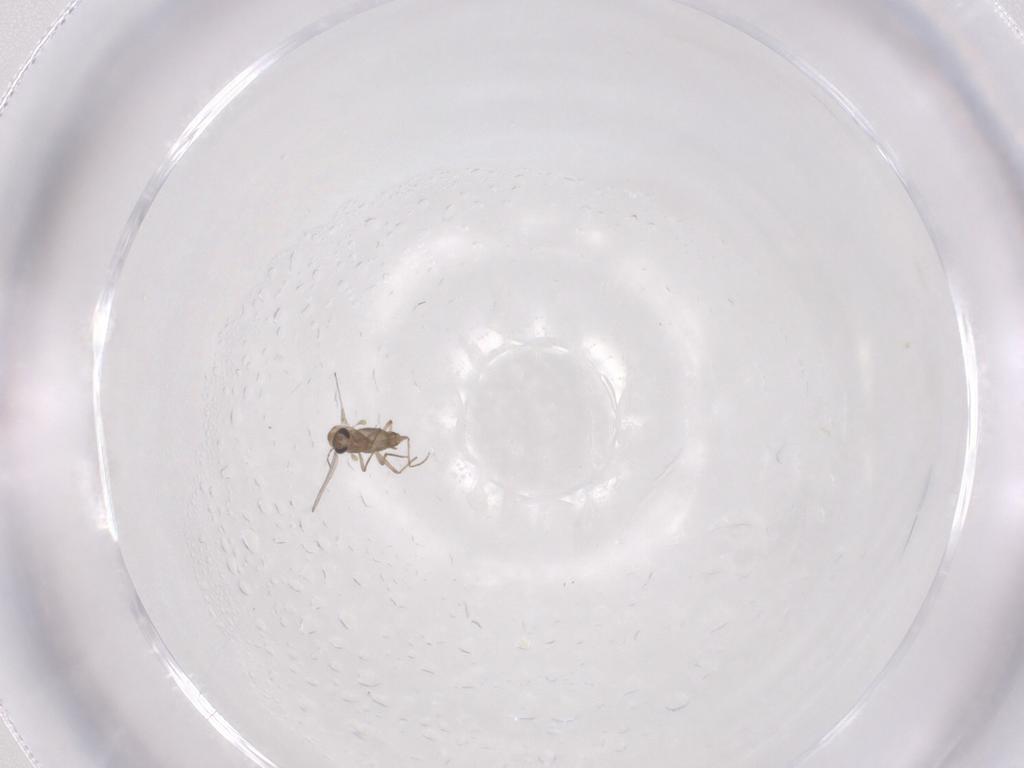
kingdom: Animalia
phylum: Arthropoda
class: Insecta
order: Diptera
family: Chironomidae
